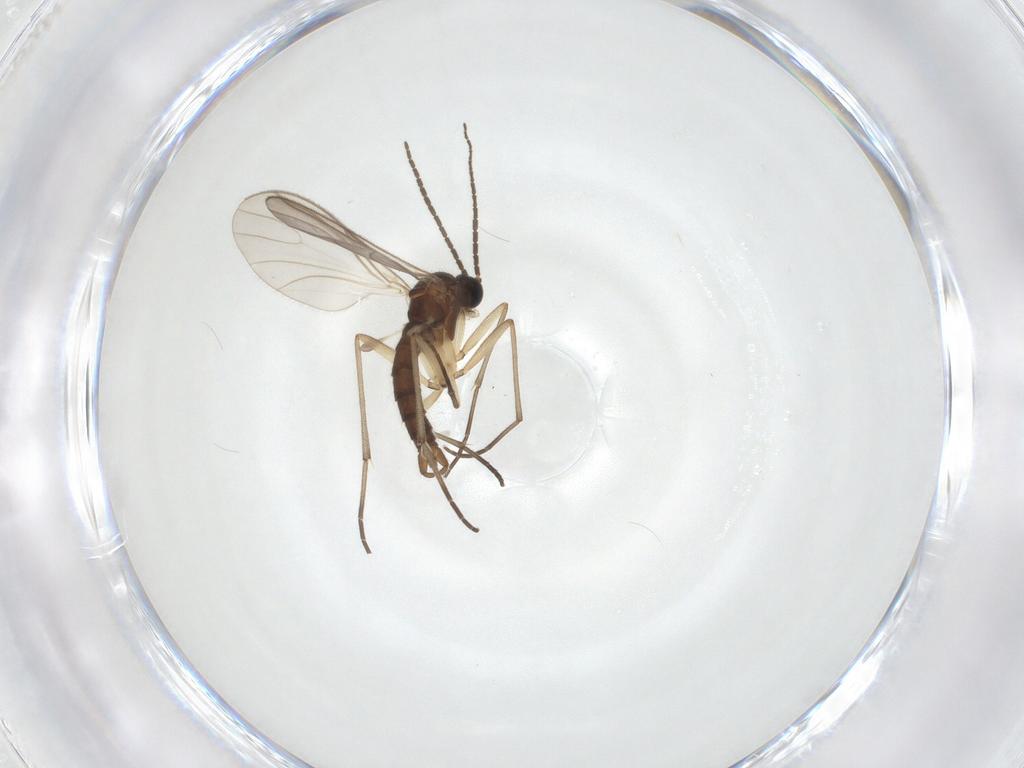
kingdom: Animalia
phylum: Arthropoda
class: Insecta
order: Diptera
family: Sciaridae
